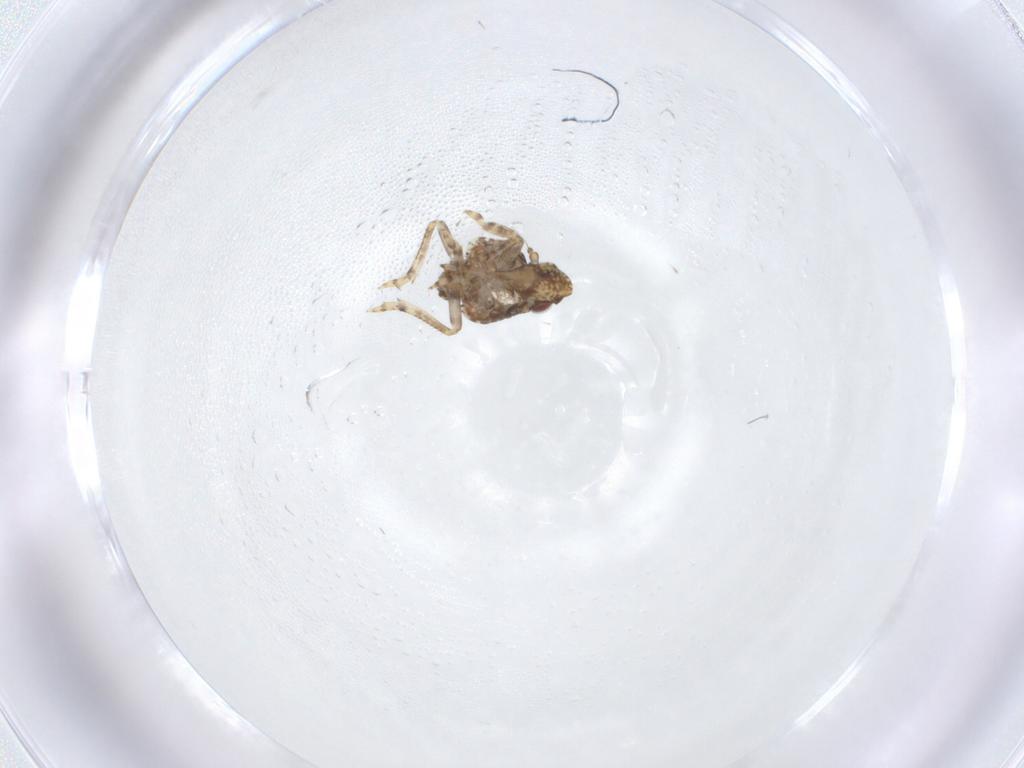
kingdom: Animalia
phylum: Arthropoda
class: Insecta
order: Hemiptera
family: Nogodinidae
